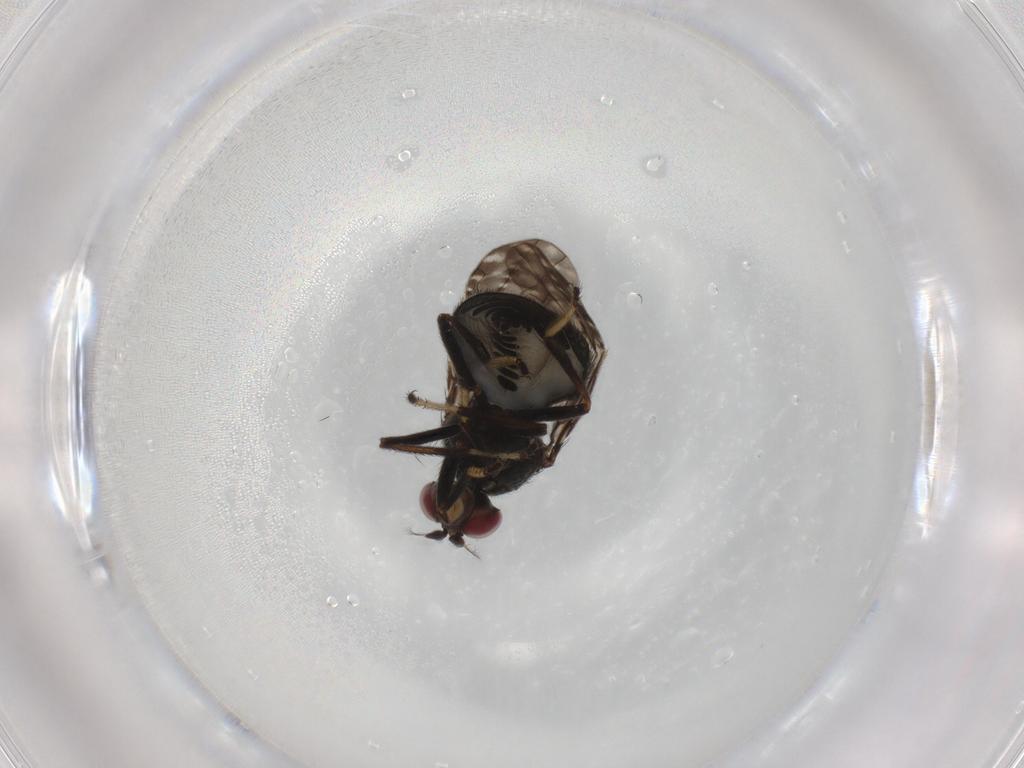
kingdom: Animalia
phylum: Arthropoda
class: Insecta
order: Diptera
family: Ephydridae
